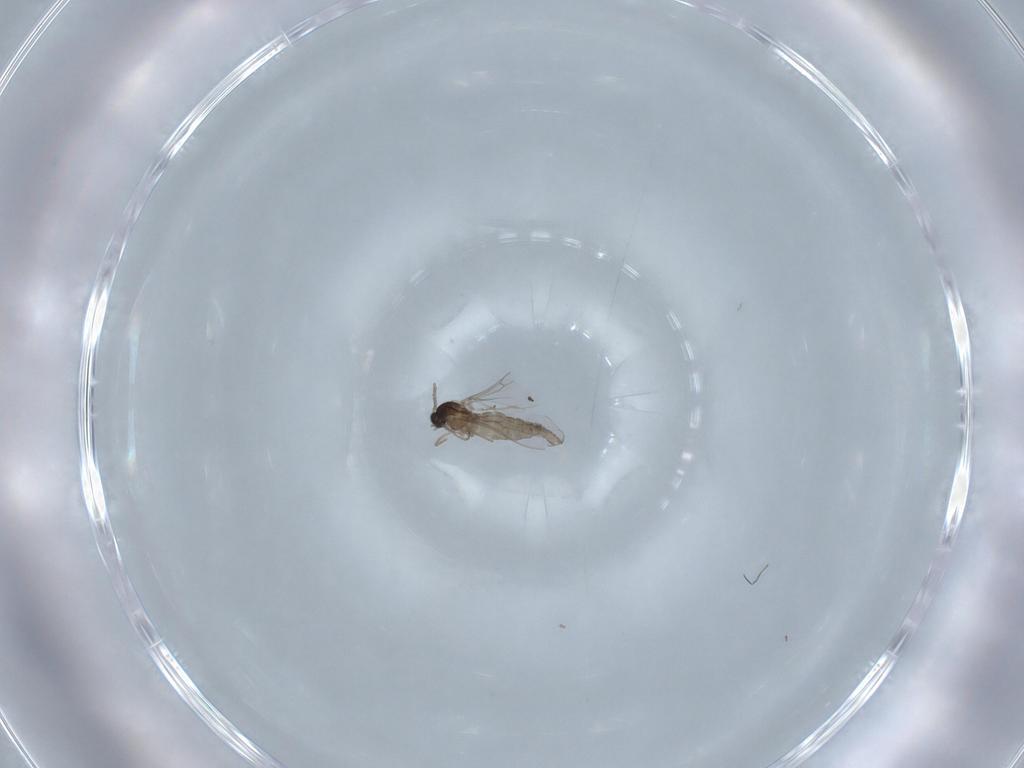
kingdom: Animalia
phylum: Arthropoda
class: Insecta
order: Diptera
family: Cecidomyiidae
